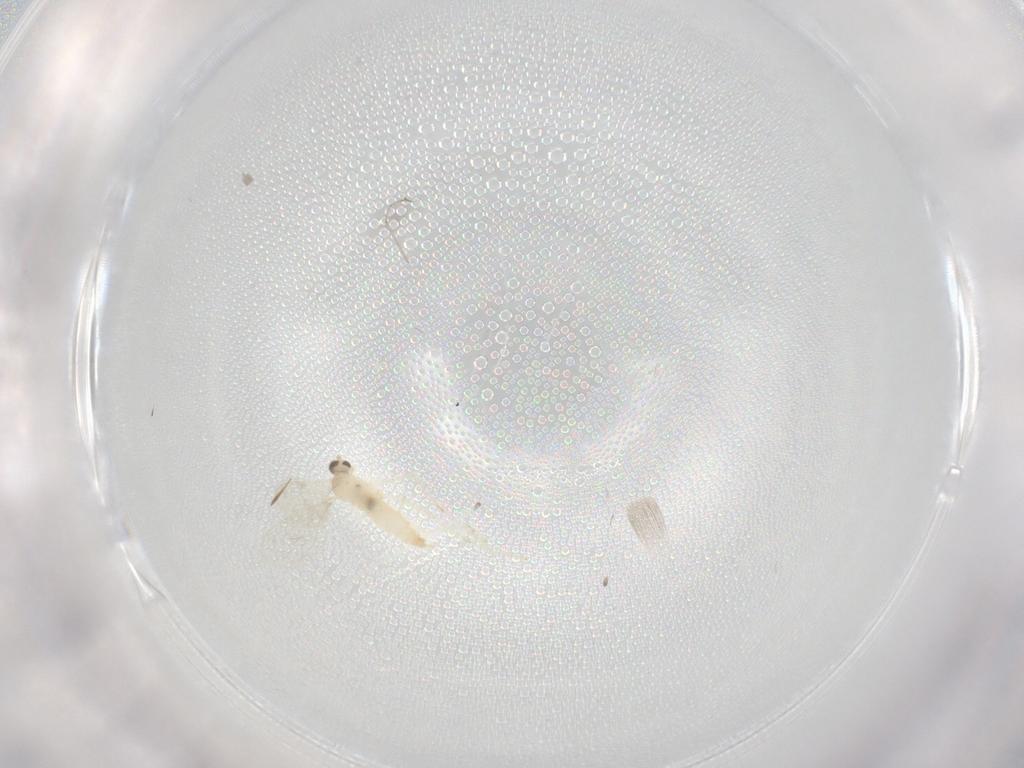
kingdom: Animalia
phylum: Arthropoda
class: Insecta
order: Diptera
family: Cecidomyiidae
